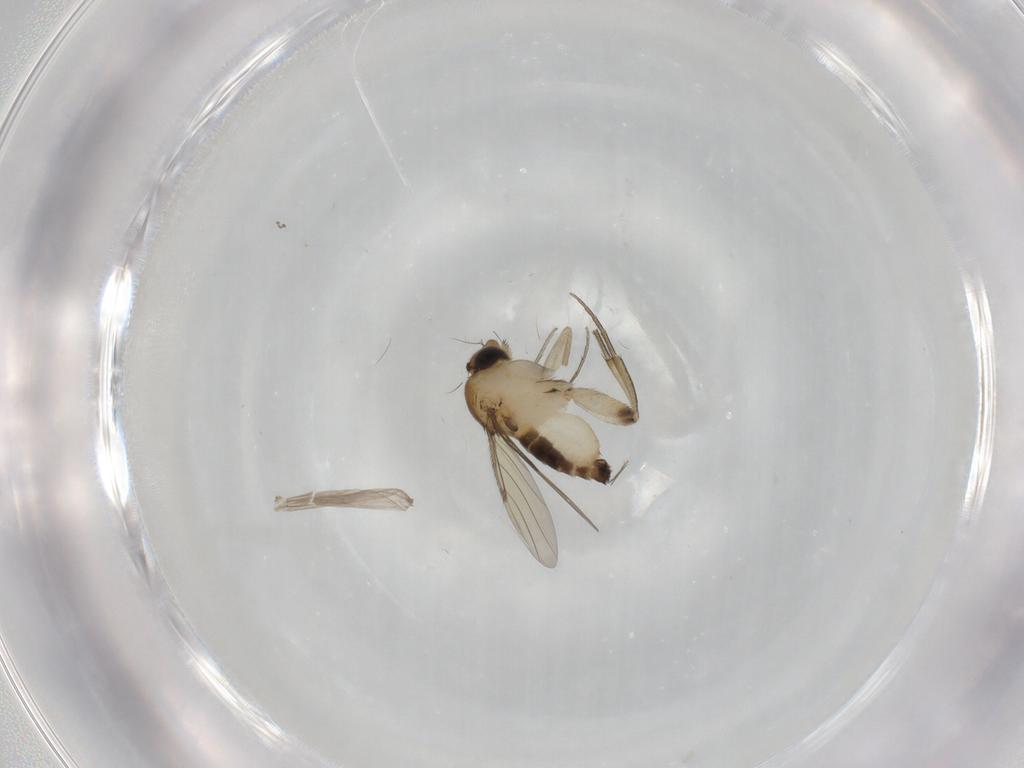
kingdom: Animalia
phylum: Arthropoda
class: Insecta
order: Diptera
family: Phoridae
